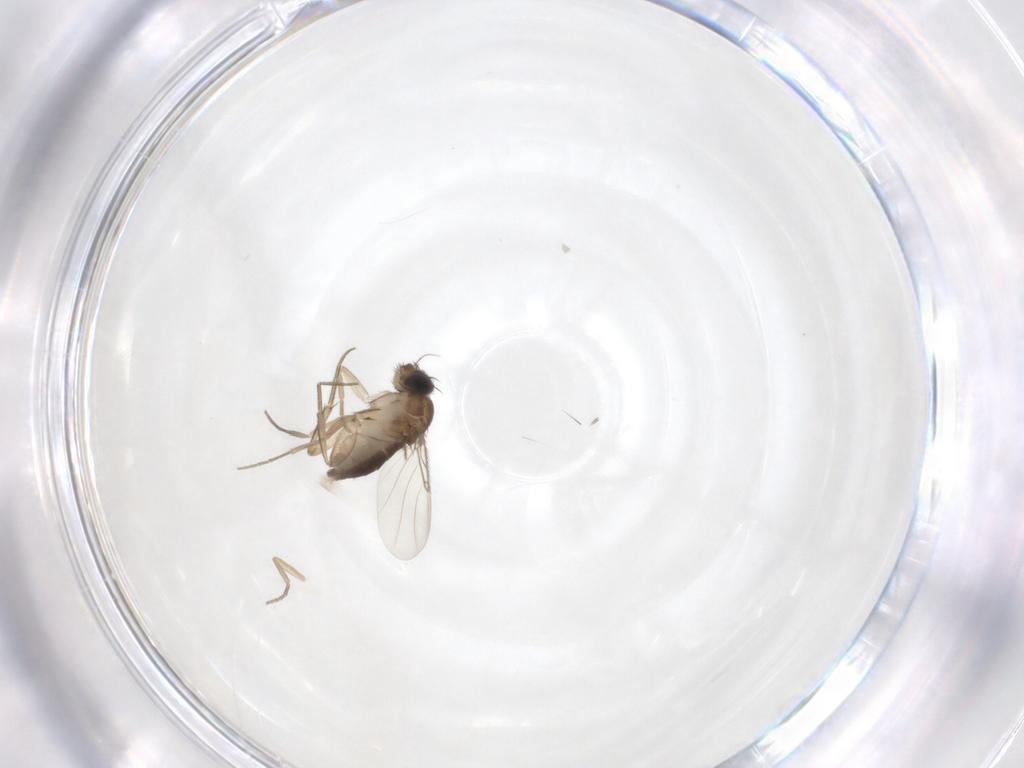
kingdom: Animalia
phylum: Arthropoda
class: Insecta
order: Diptera
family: Phoridae
